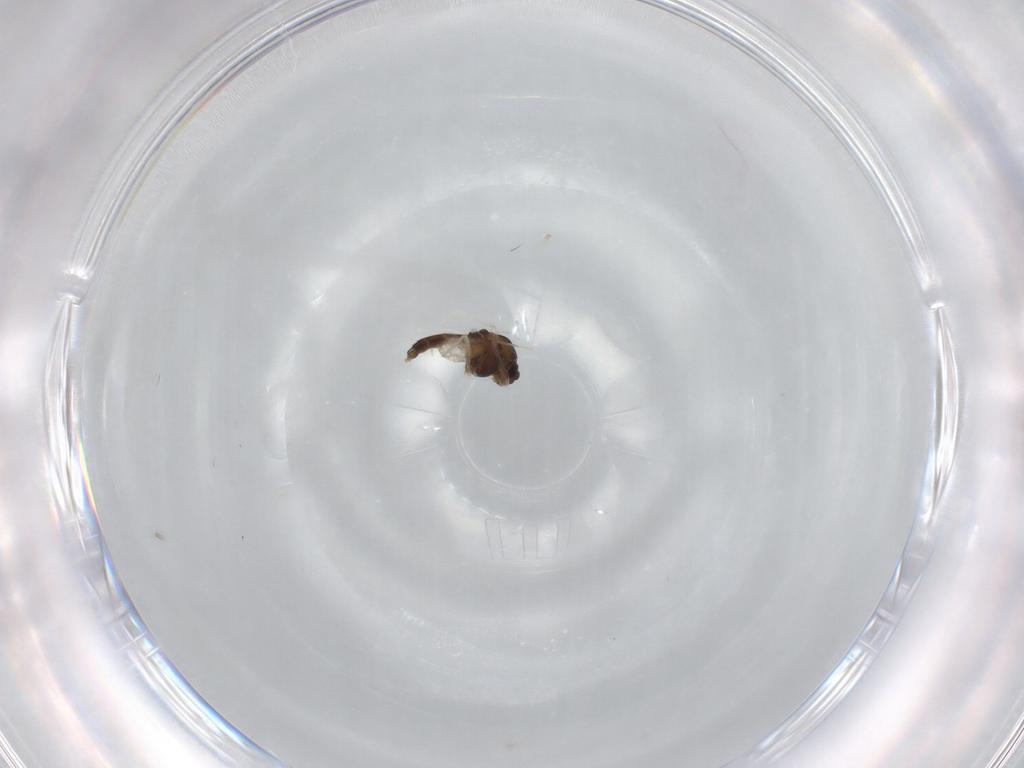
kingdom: Animalia
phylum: Arthropoda
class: Insecta
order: Diptera
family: Chironomidae
